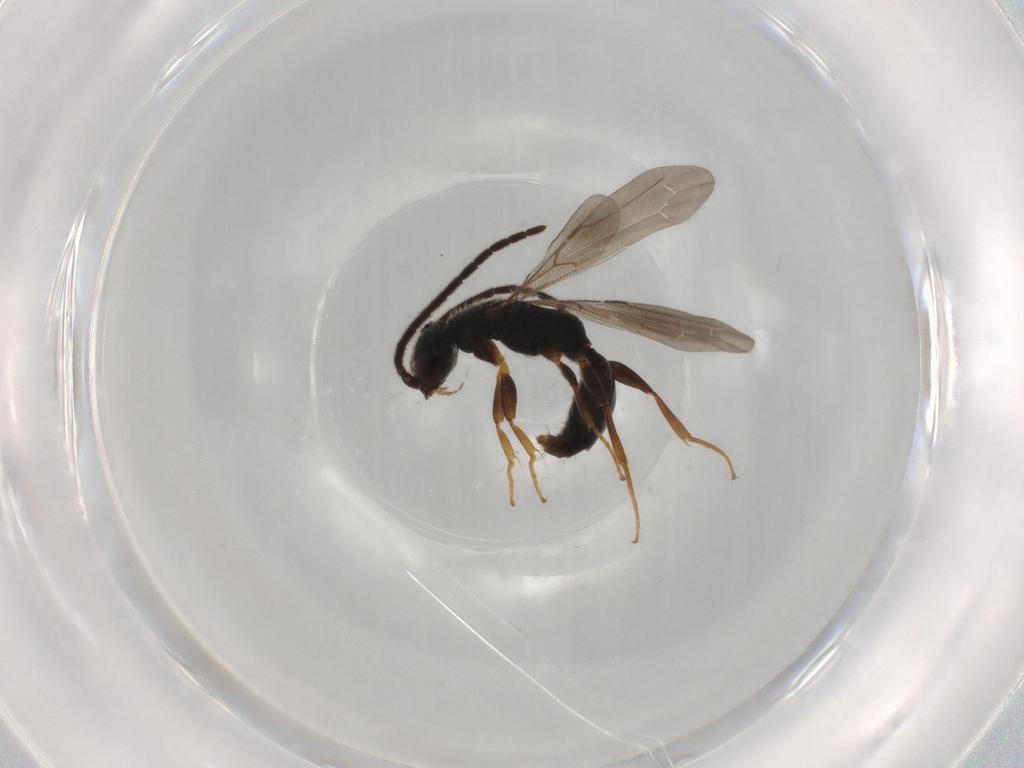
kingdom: Animalia
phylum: Arthropoda
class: Insecta
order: Hymenoptera
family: Bethylidae
